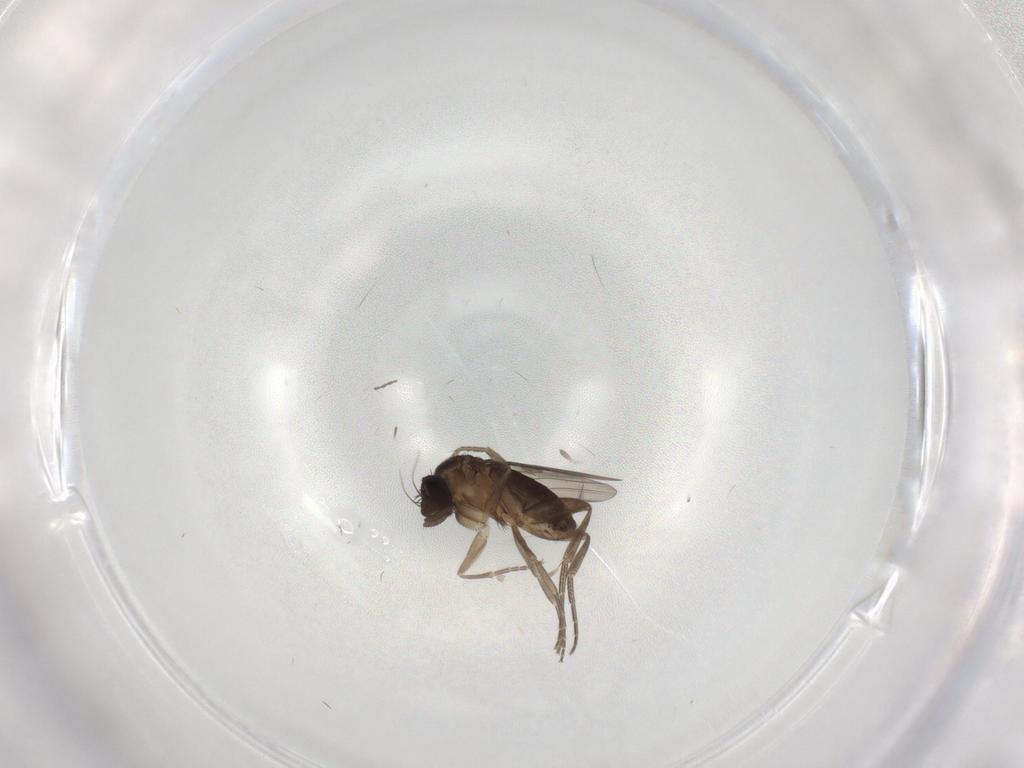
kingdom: Animalia
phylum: Arthropoda
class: Insecta
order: Diptera
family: Phoridae
